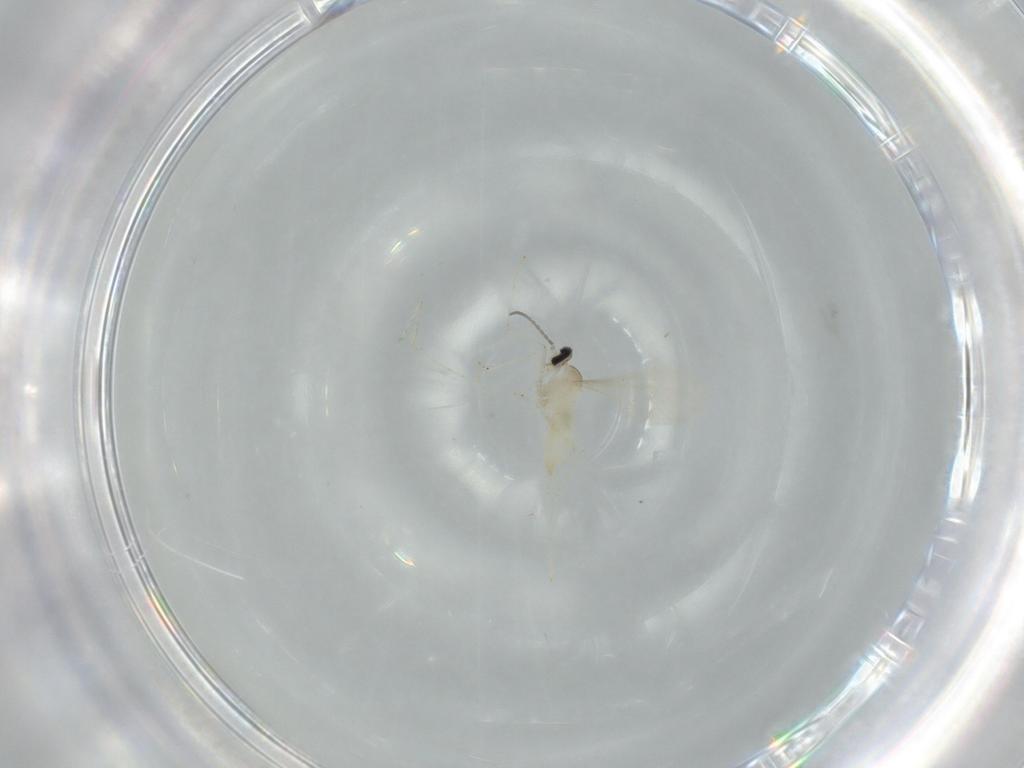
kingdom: Animalia
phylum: Arthropoda
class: Insecta
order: Diptera
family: Cecidomyiidae
